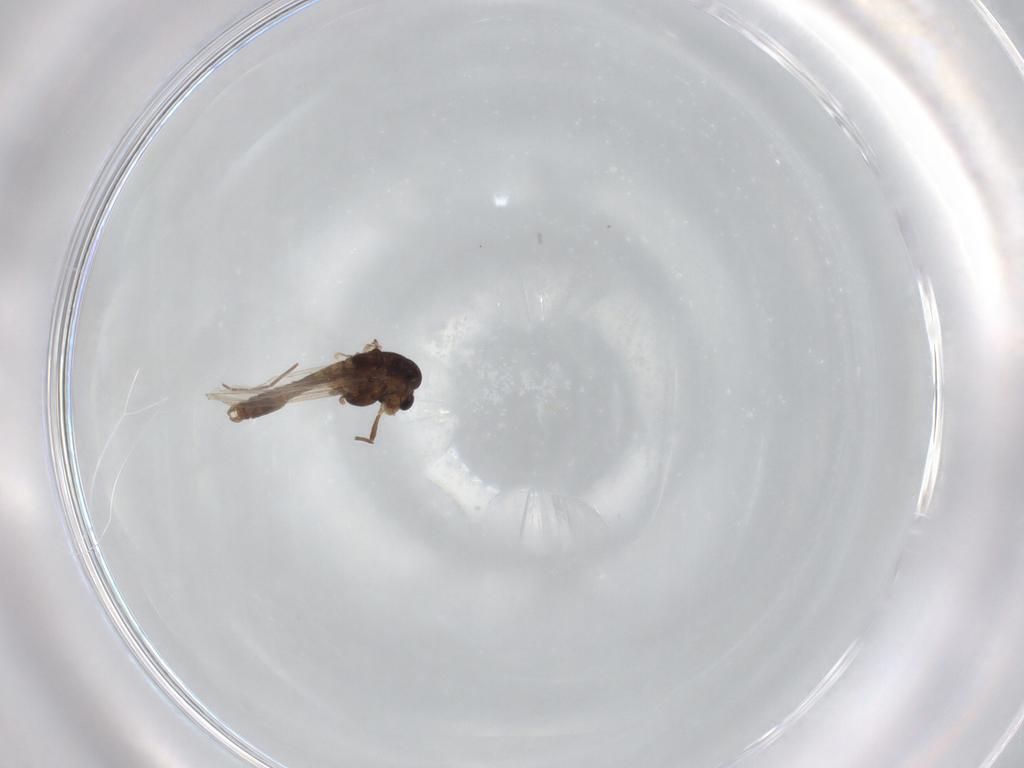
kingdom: Animalia
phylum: Arthropoda
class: Insecta
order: Diptera
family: Chironomidae
